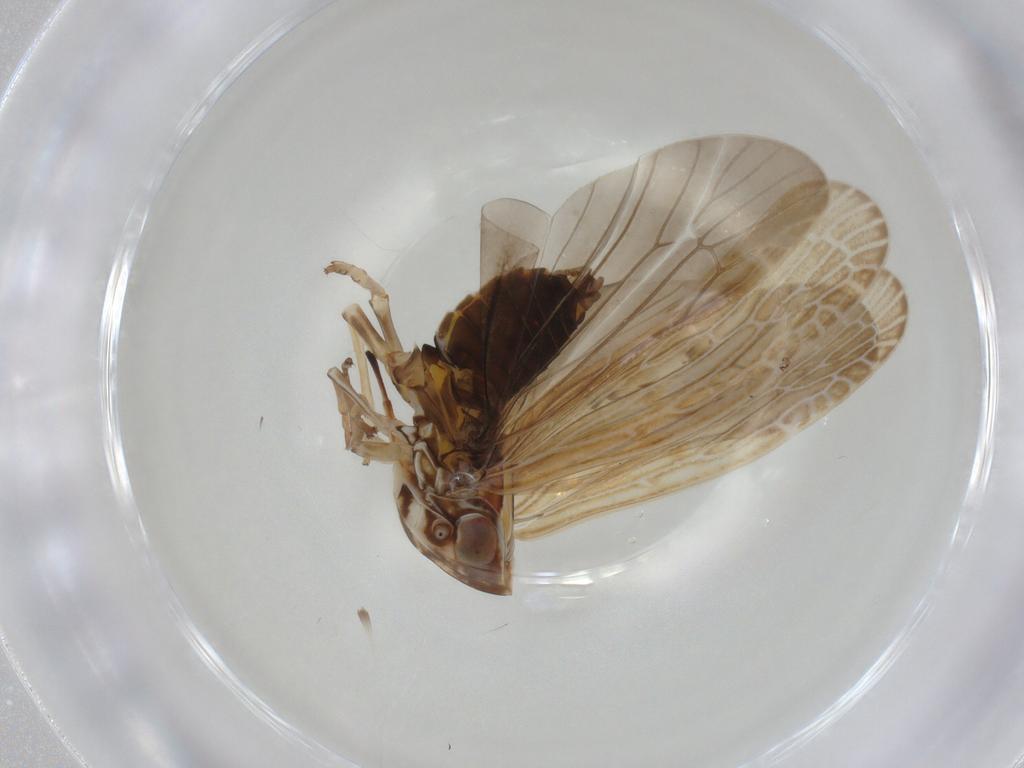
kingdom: Animalia
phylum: Arthropoda
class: Insecta
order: Hemiptera
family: Achilidae
